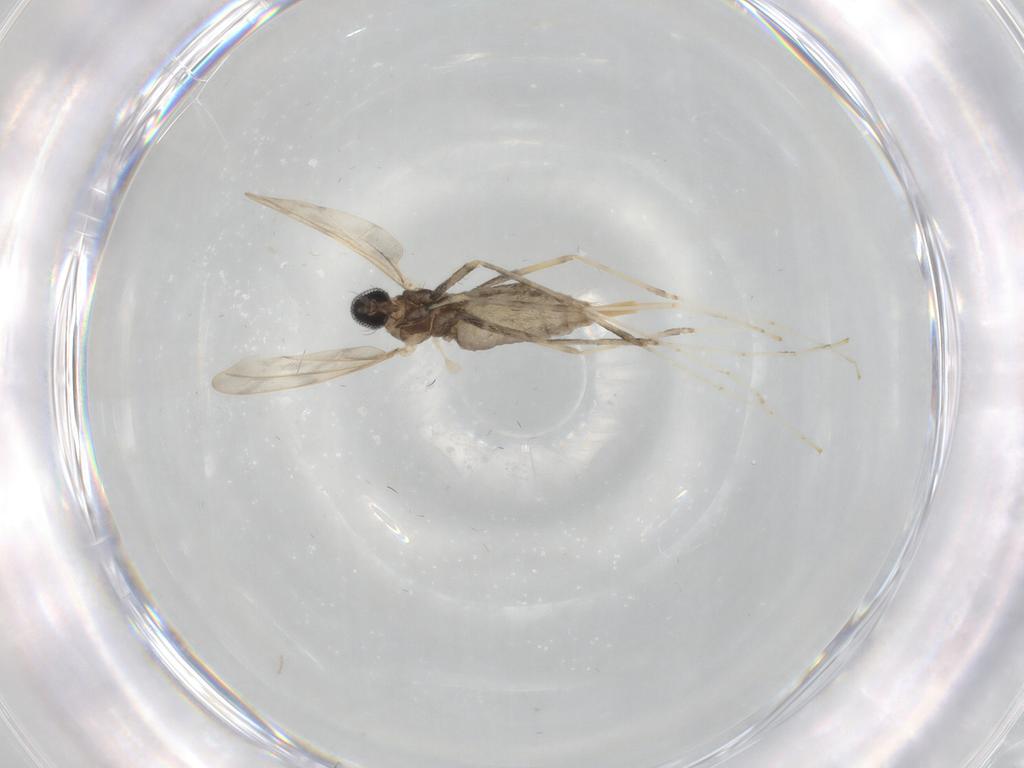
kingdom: Animalia
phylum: Arthropoda
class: Insecta
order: Diptera
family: Cecidomyiidae
